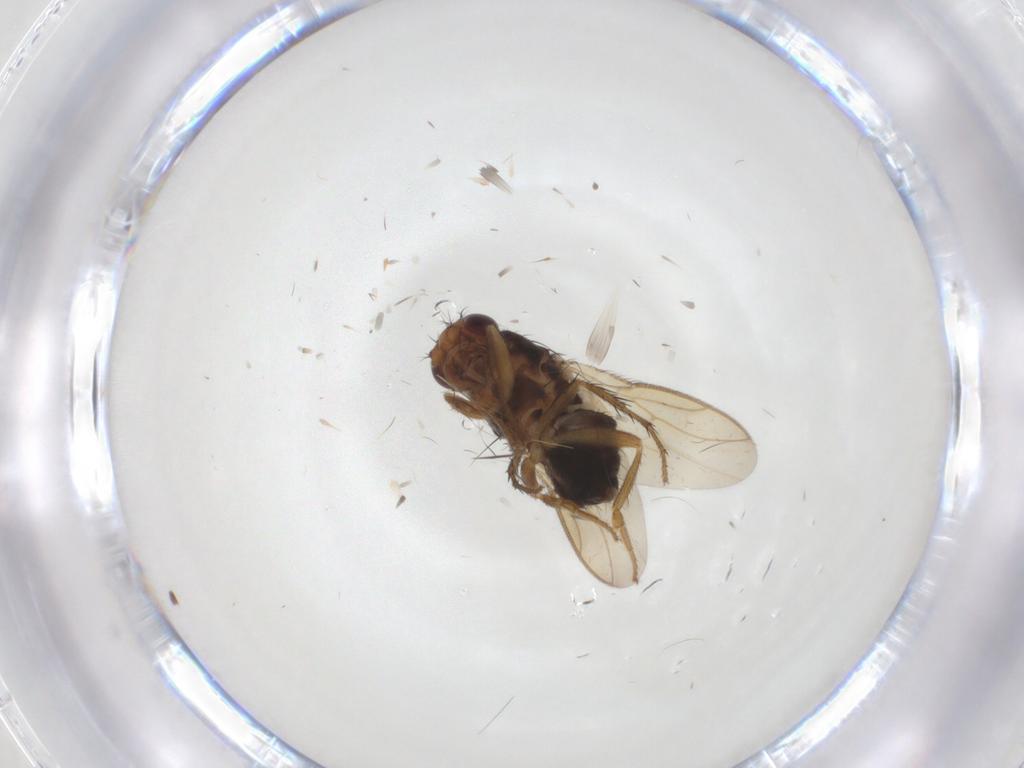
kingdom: Animalia
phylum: Arthropoda
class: Insecta
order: Diptera
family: Sphaeroceridae
